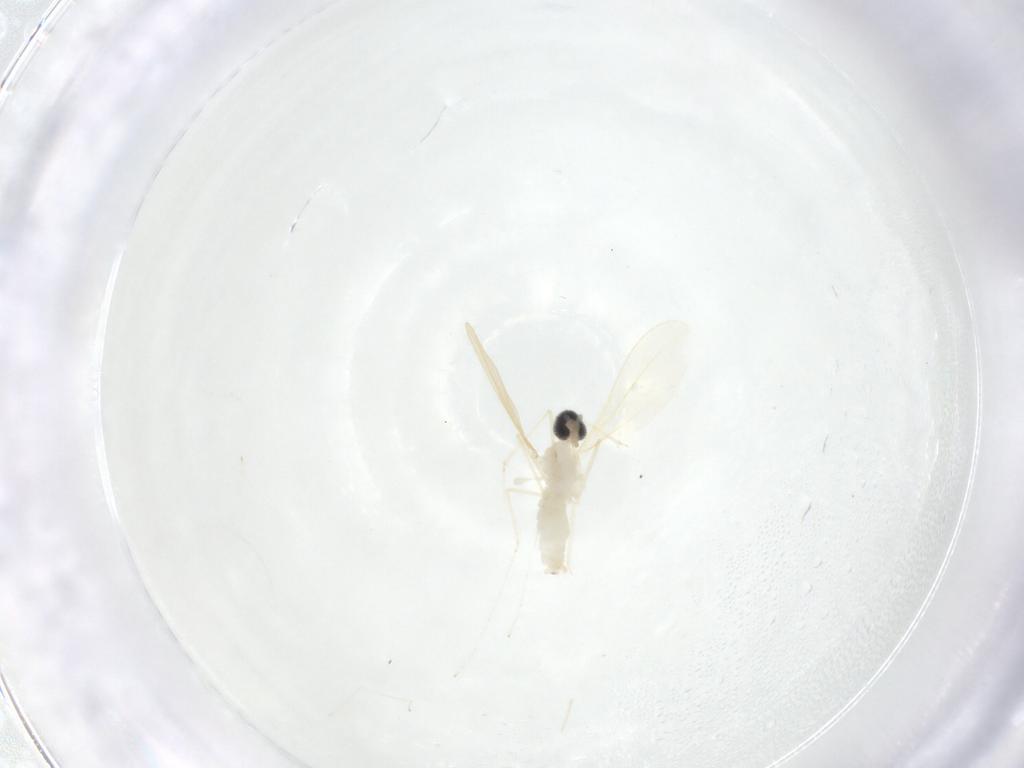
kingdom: Animalia
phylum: Arthropoda
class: Insecta
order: Diptera
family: Cecidomyiidae
